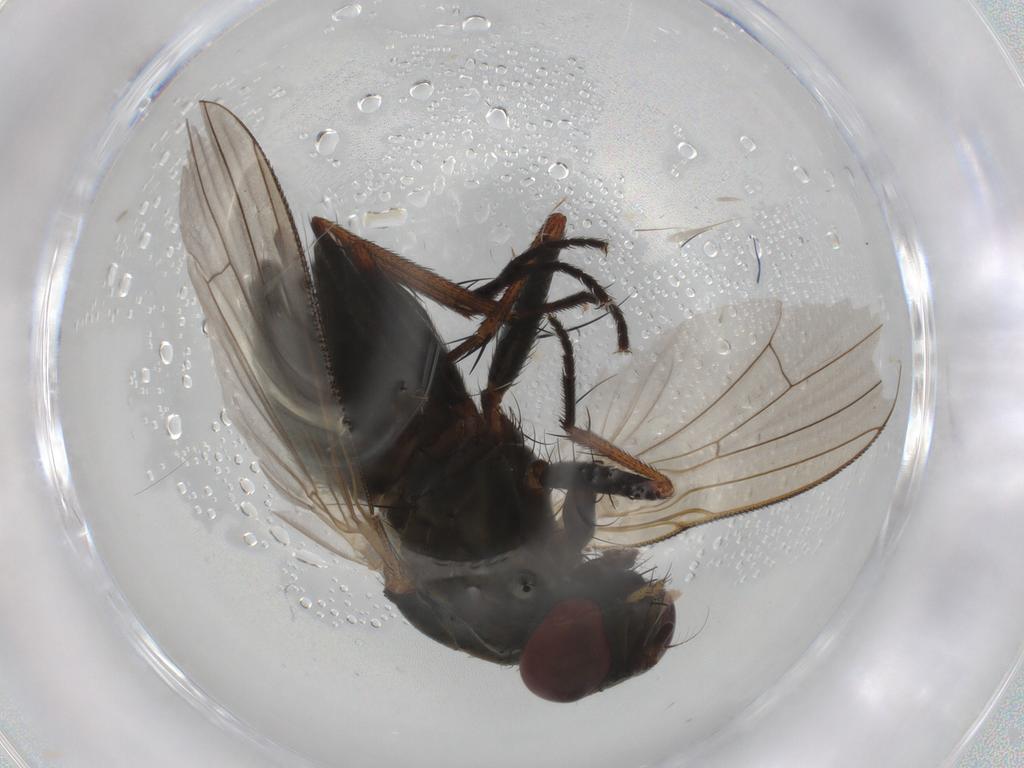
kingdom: Animalia
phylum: Arthropoda
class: Insecta
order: Diptera
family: Muscidae
